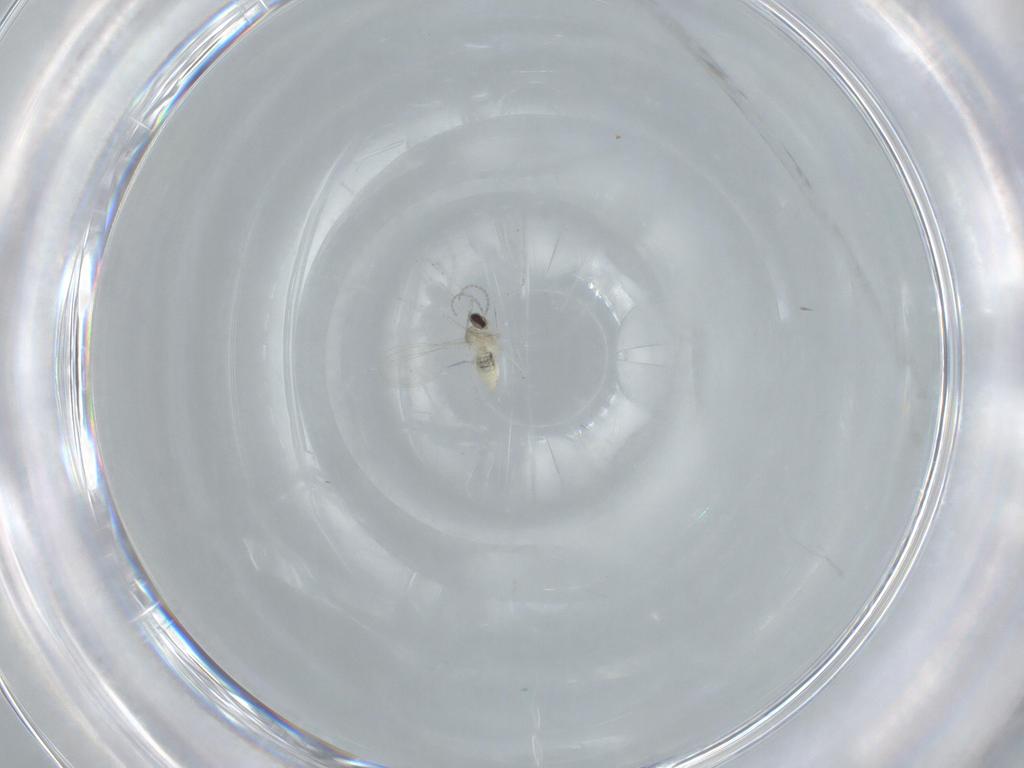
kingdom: Animalia
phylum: Arthropoda
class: Insecta
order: Diptera
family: Cecidomyiidae
